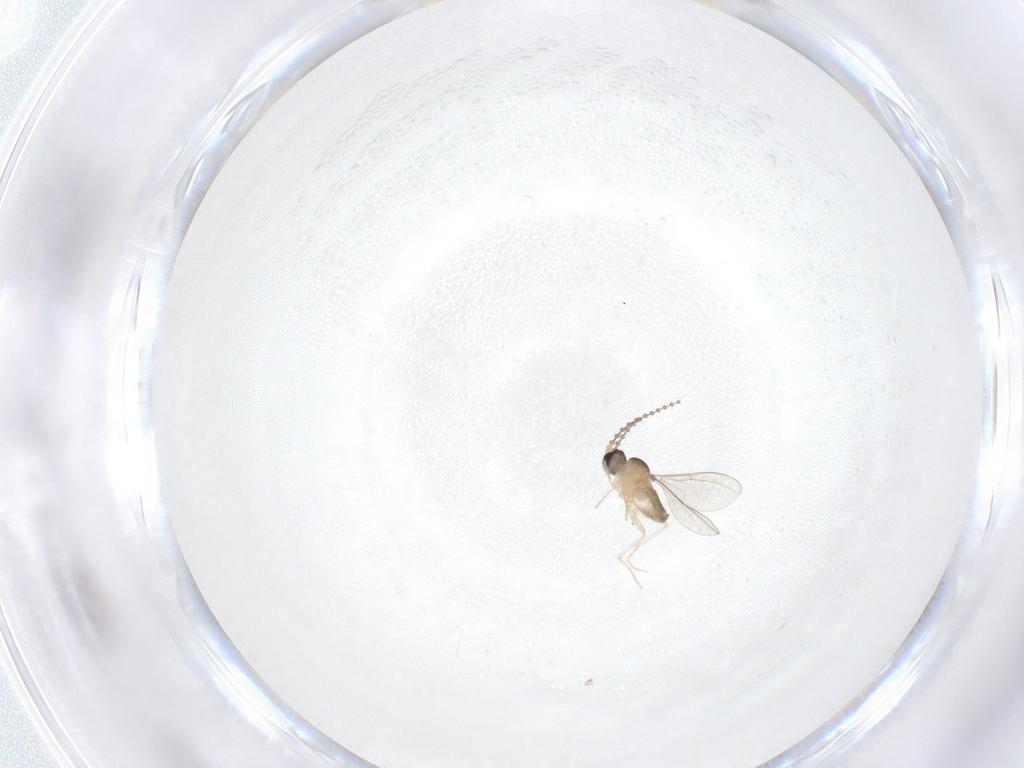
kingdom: Animalia
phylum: Arthropoda
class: Insecta
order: Diptera
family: Cecidomyiidae
